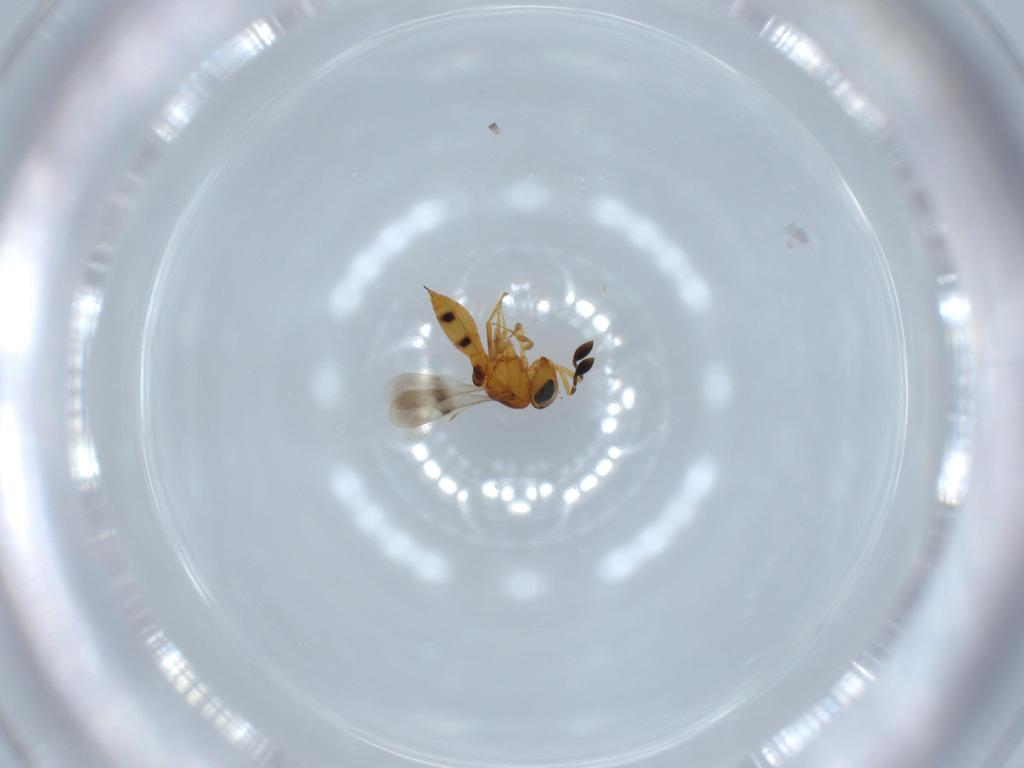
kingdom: Animalia
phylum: Arthropoda
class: Insecta
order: Hymenoptera
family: Scelionidae
